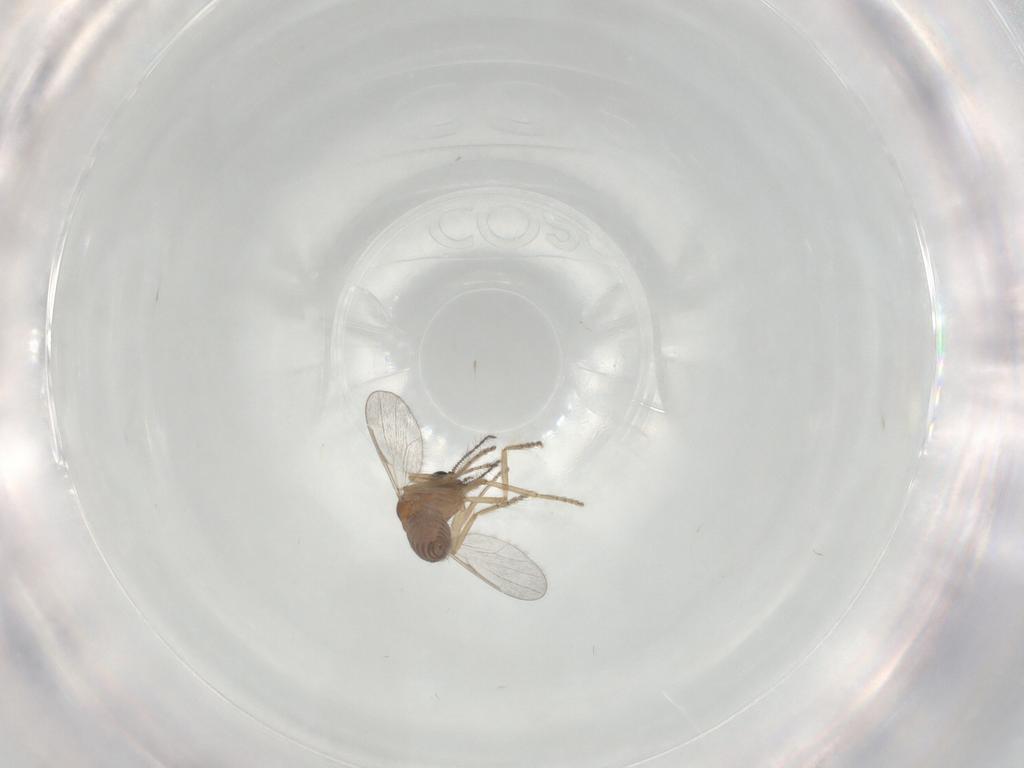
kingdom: Animalia
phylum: Arthropoda
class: Insecta
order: Diptera
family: Ceratopogonidae
